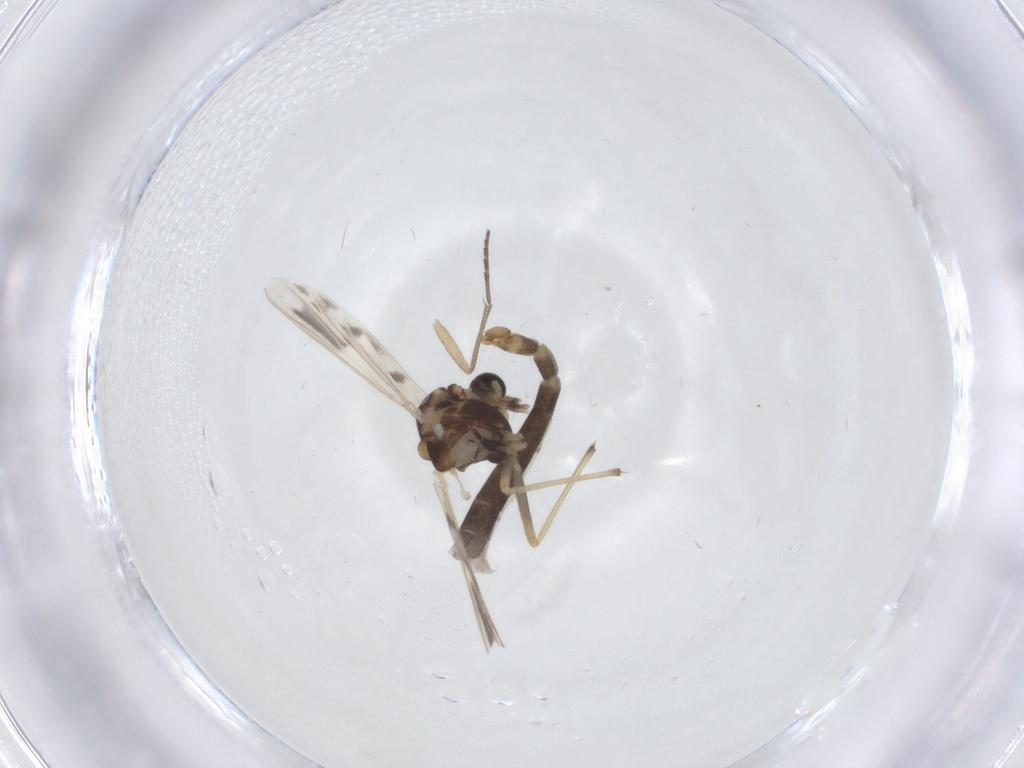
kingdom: Animalia
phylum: Arthropoda
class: Insecta
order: Diptera
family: Chironomidae
